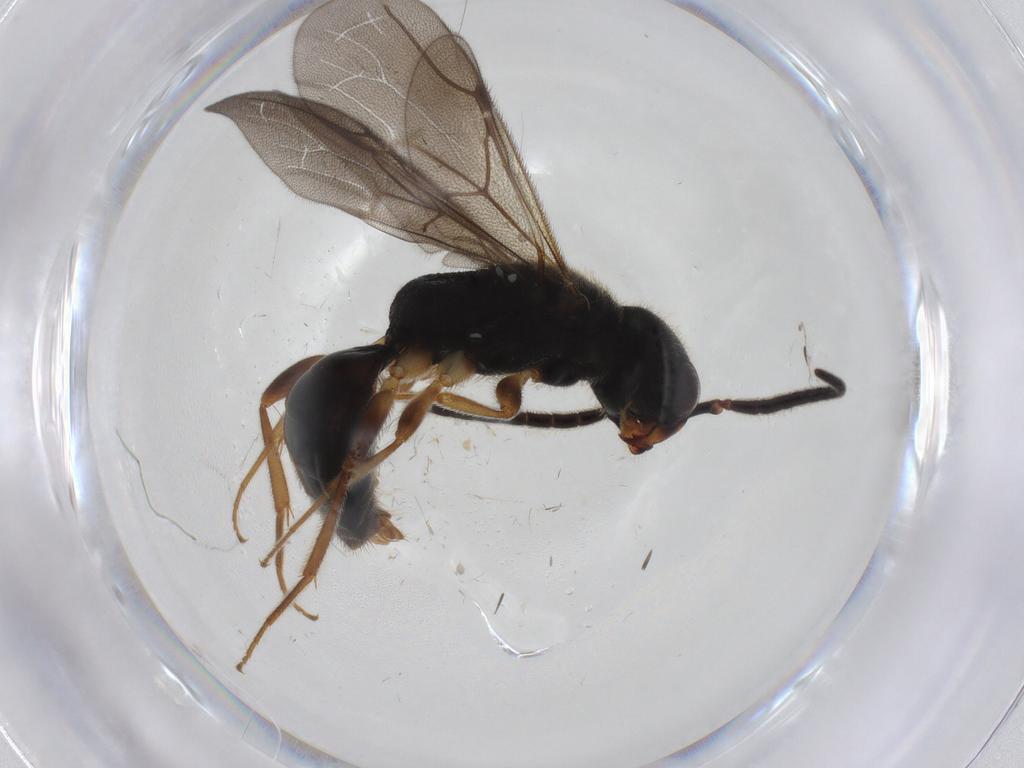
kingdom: Animalia
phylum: Arthropoda
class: Insecta
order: Hymenoptera
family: Bethylidae
